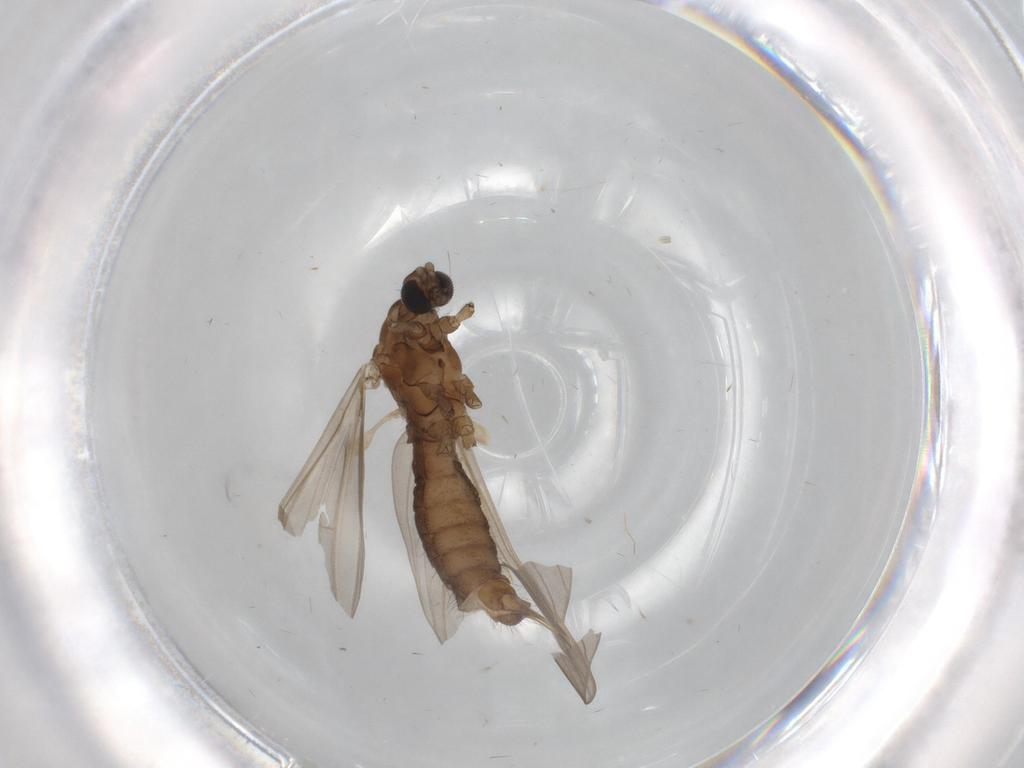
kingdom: Animalia
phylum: Arthropoda
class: Insecta
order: Diptera
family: Limoniidae
